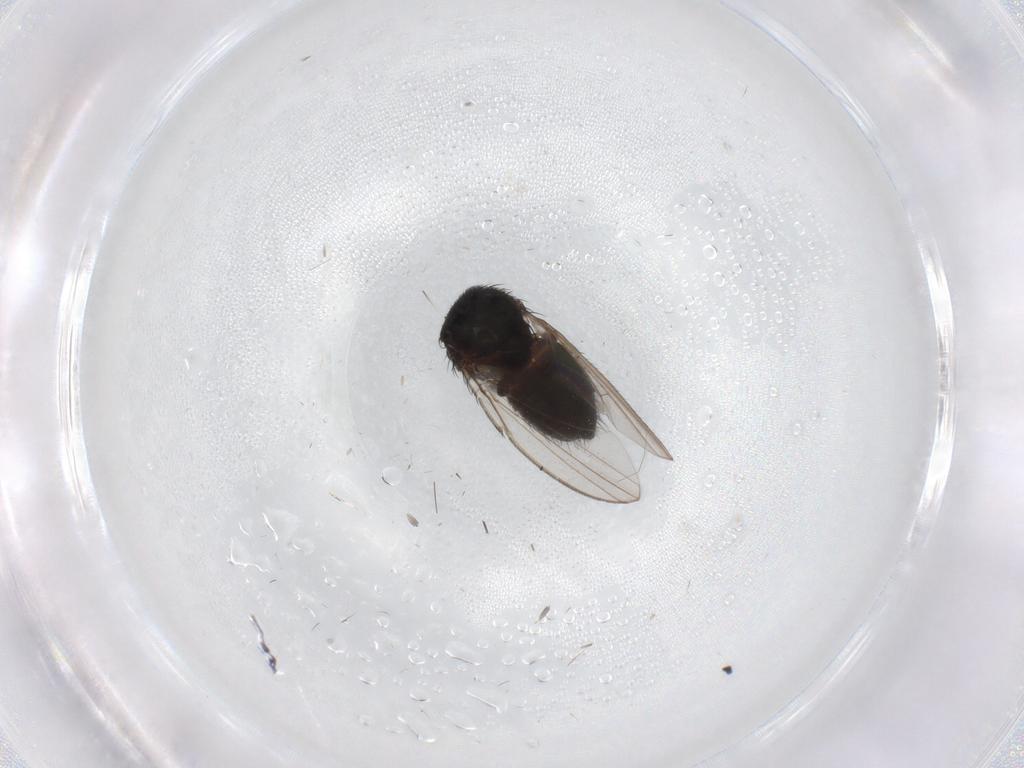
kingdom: Animalia
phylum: Arthropoda
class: Insecta
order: Diptera
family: Milichiidae
